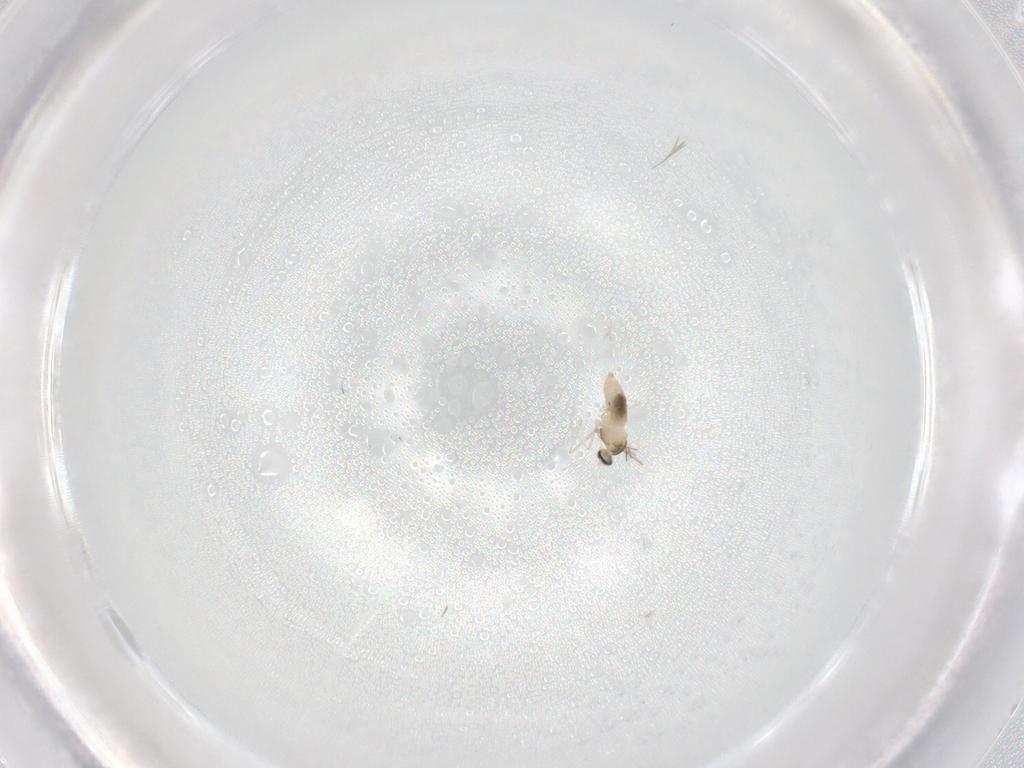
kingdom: Animalia
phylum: Arthropoda
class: Insecta
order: Diptera
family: Cecidomyiidae
